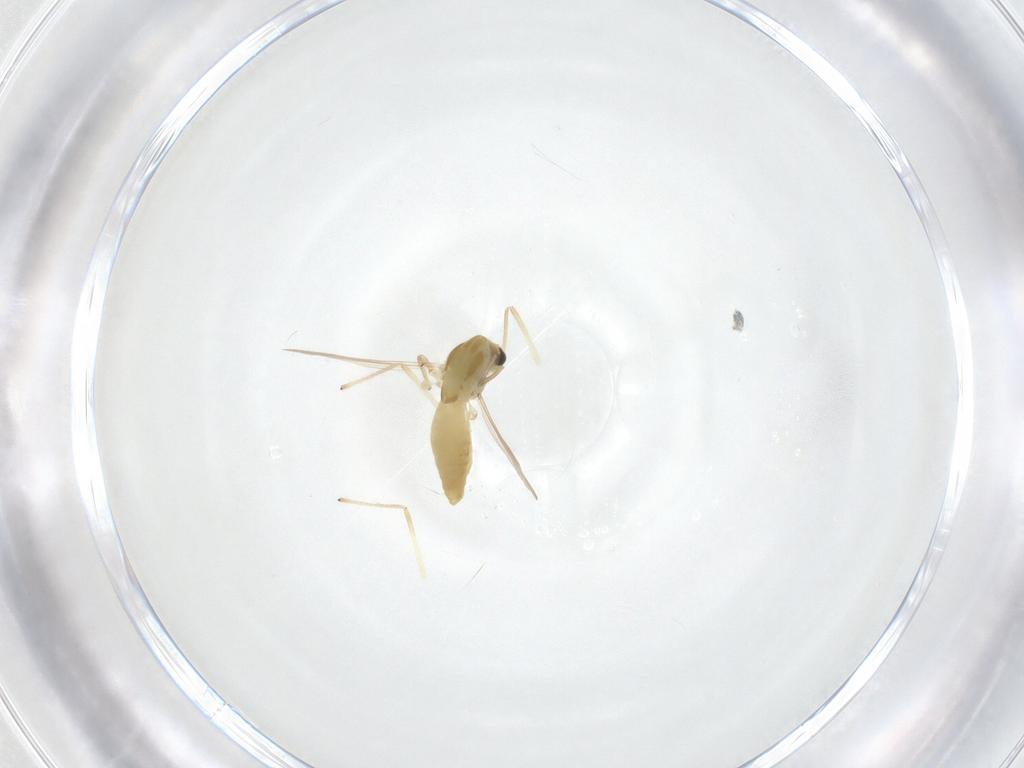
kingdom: Animalia
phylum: Arthropoda
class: Insecta
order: Diptera
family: Chironomidae
